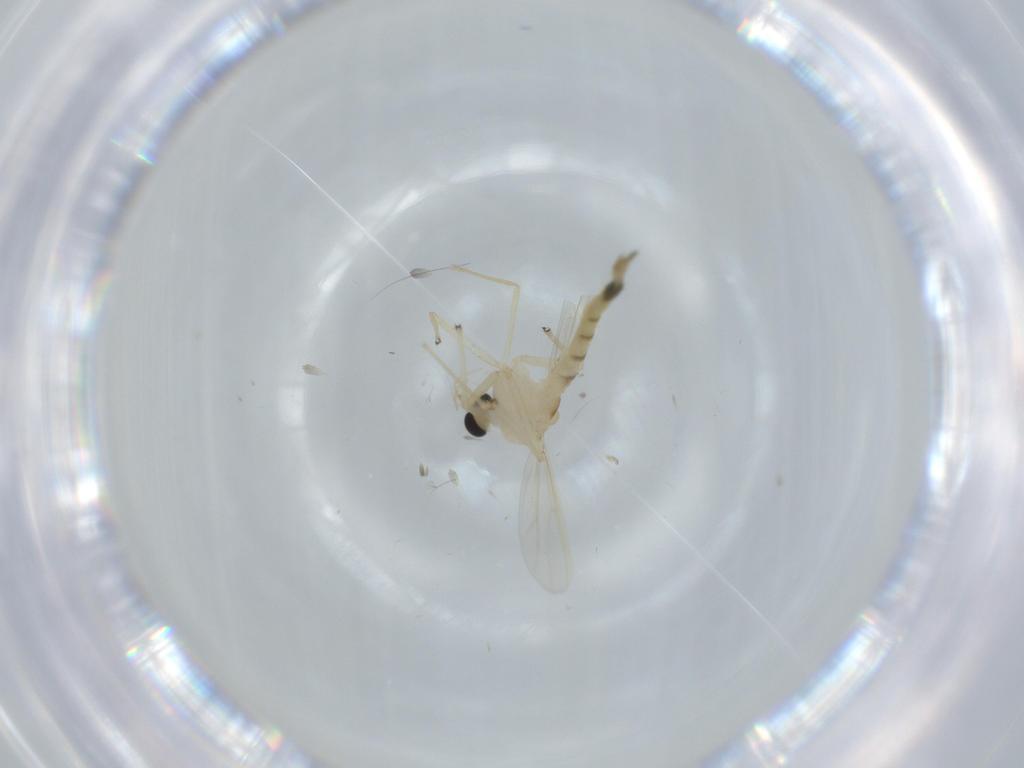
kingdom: Animalia
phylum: Arthropoda
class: Insecta
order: Diptera
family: Chironomidae
